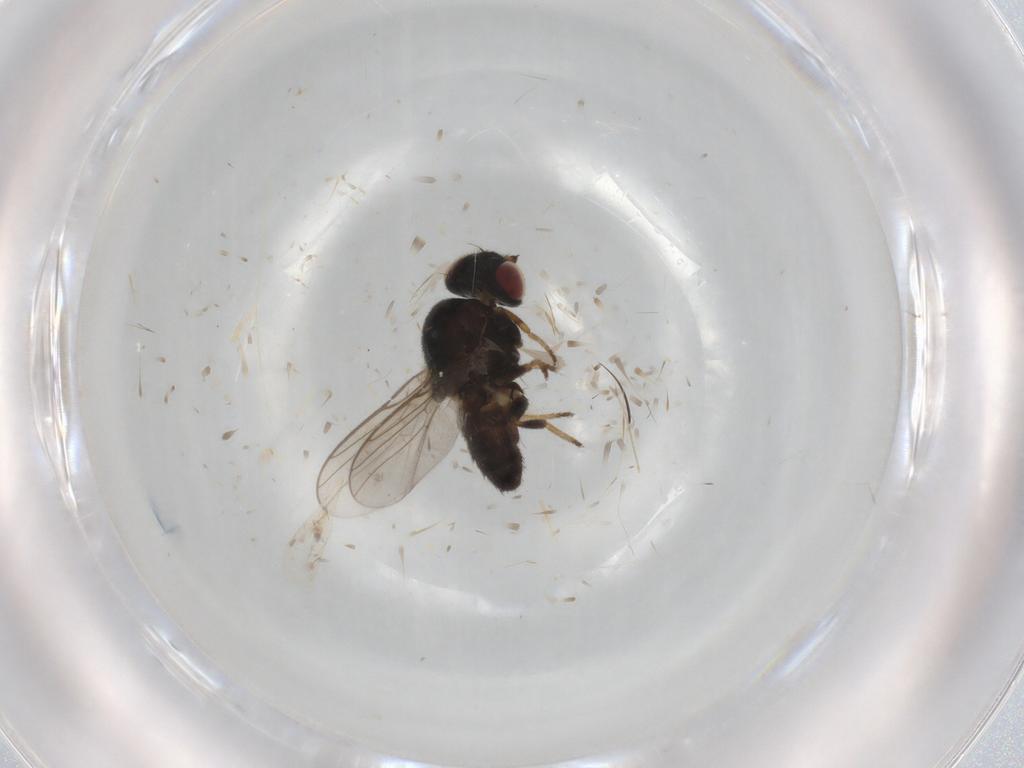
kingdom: Animalia
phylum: Arthropoda
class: Insecta
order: Diptera
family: Chloropidae
